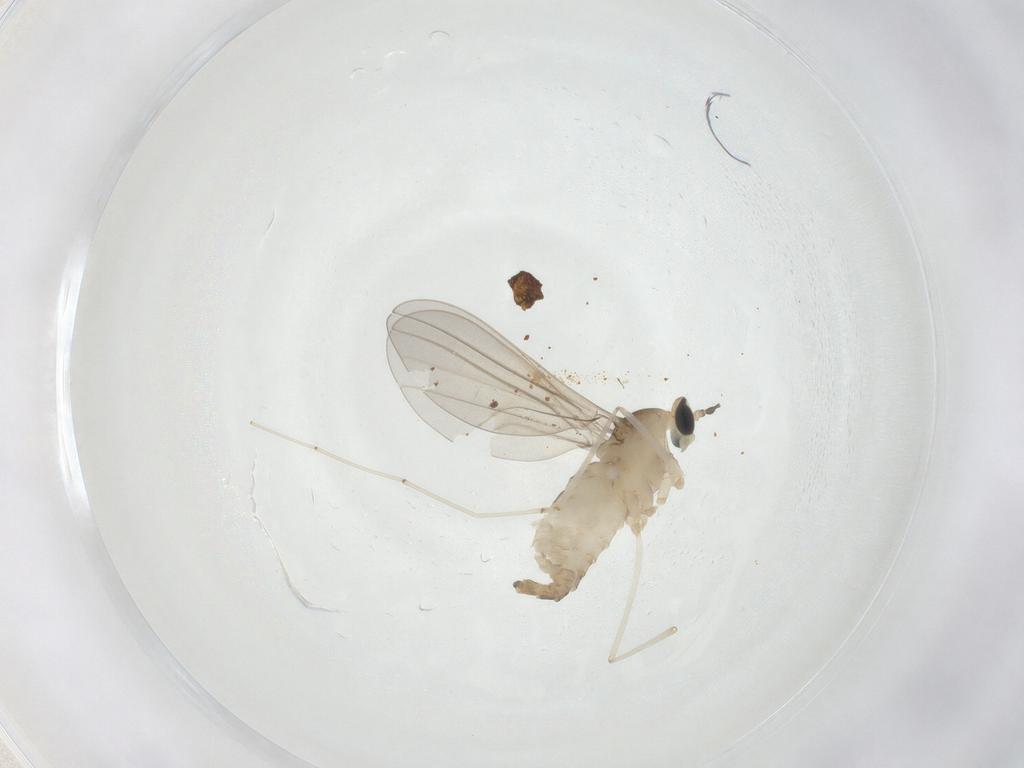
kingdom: Animalia
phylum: Arthropoda
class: Insecta
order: Diptera
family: Cecidomyiidae
